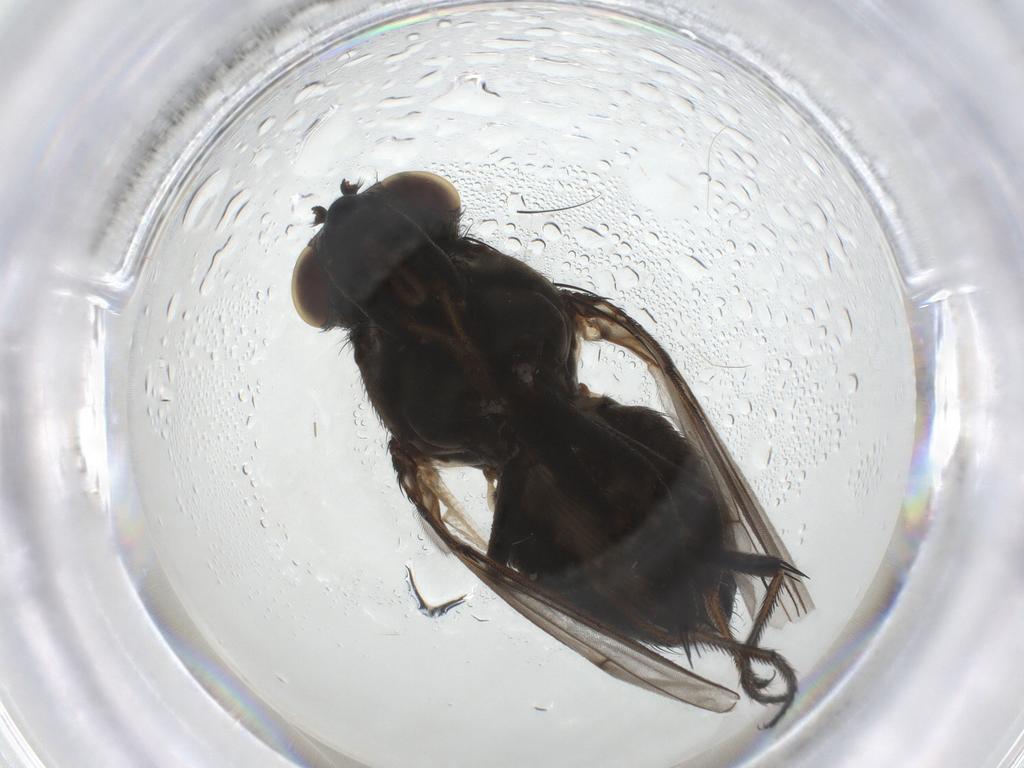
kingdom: Animalia
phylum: Arthropoda
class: Insecta
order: Diptera
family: Ephydridae
